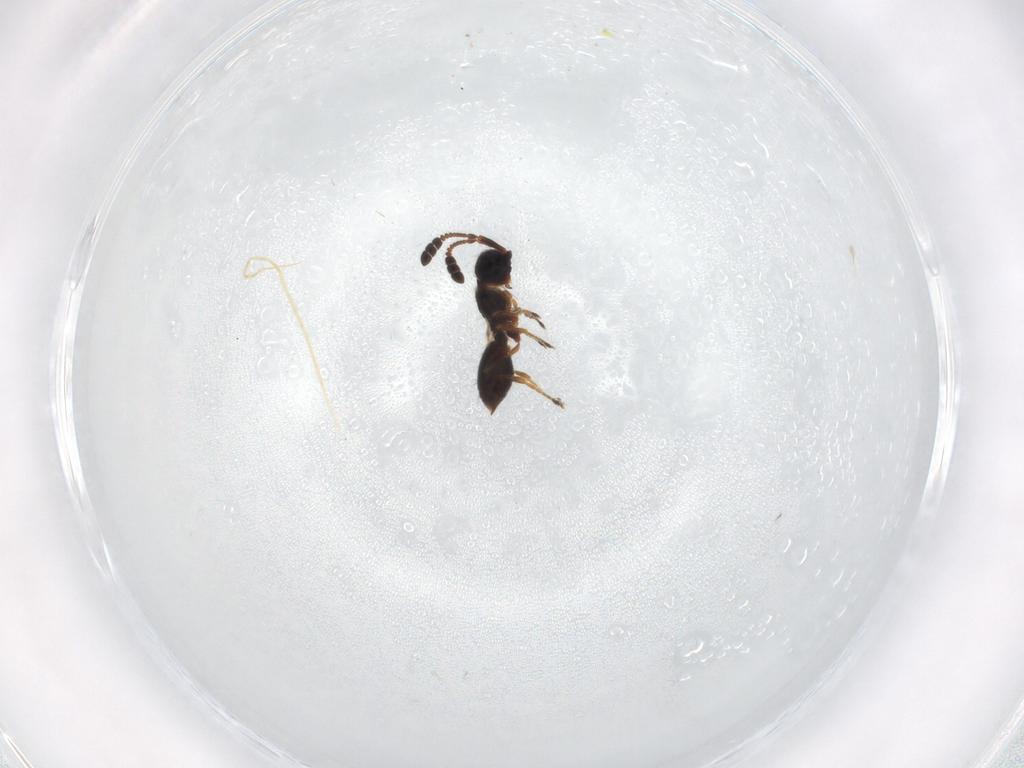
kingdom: Animalia
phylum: Arthropoda
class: Insecta
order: Hymenoptera
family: Diapriidae
